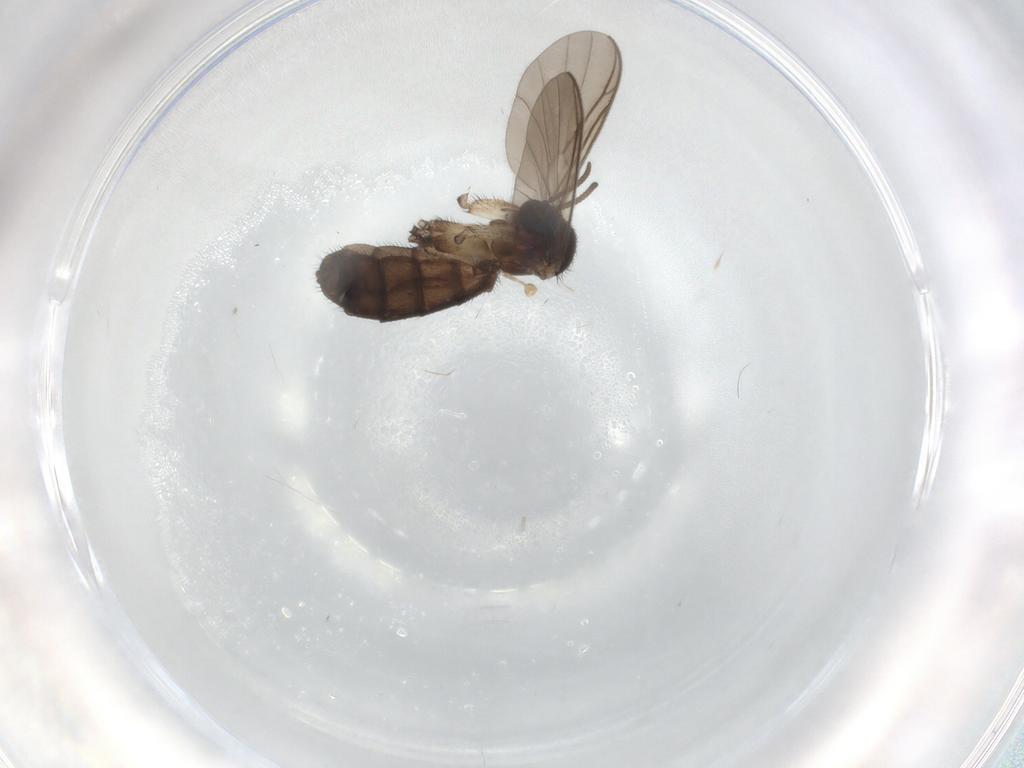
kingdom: Animalia
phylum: Arthropoda
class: Insecta
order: Diptera
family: Keroplatidae
